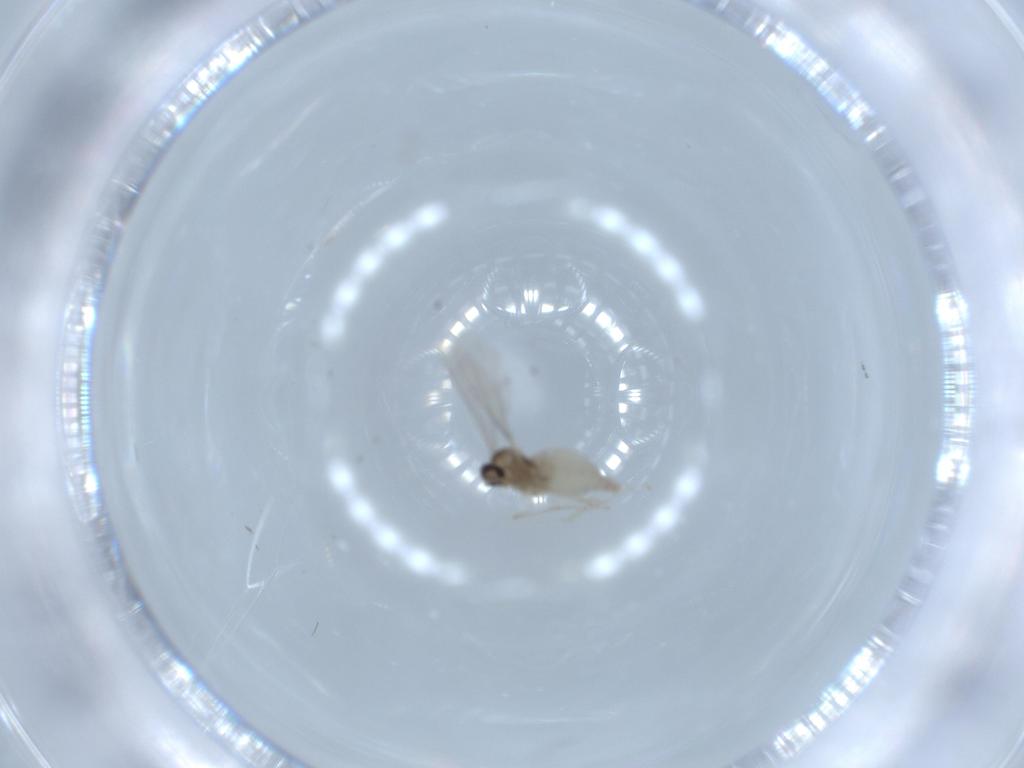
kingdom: Animalia
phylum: Arthropoda
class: Insecta
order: Diptera
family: Cecidomyiidae
